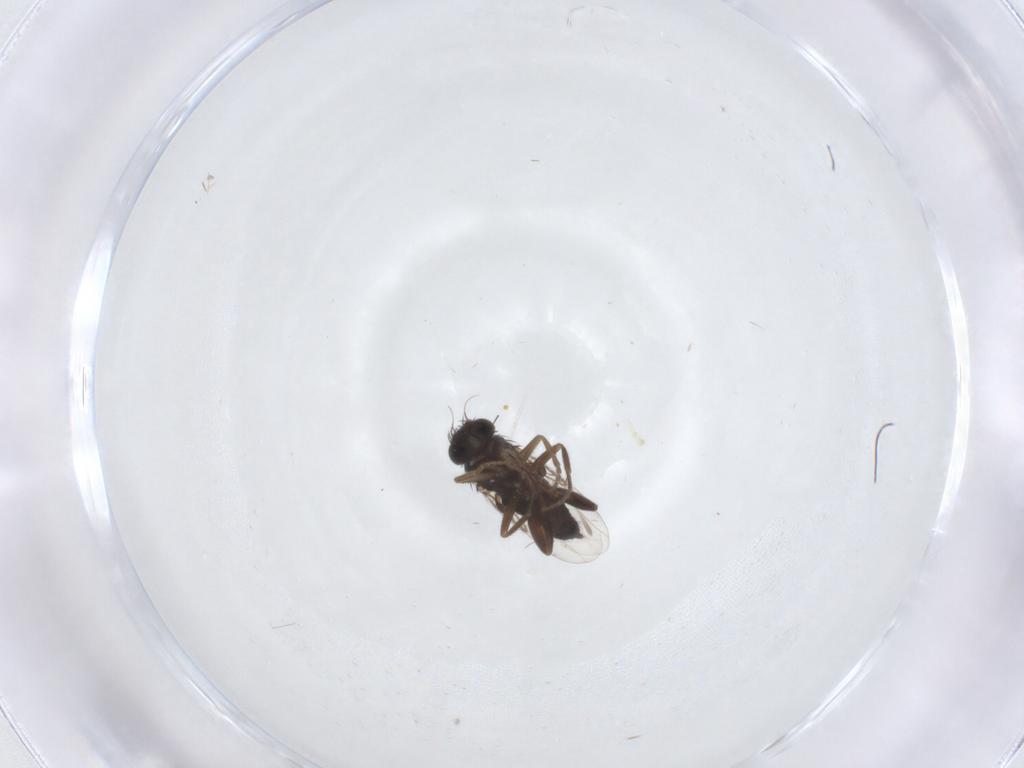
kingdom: Animalia
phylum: Arthropoda
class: Insecta
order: Diptera
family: Phoridae
